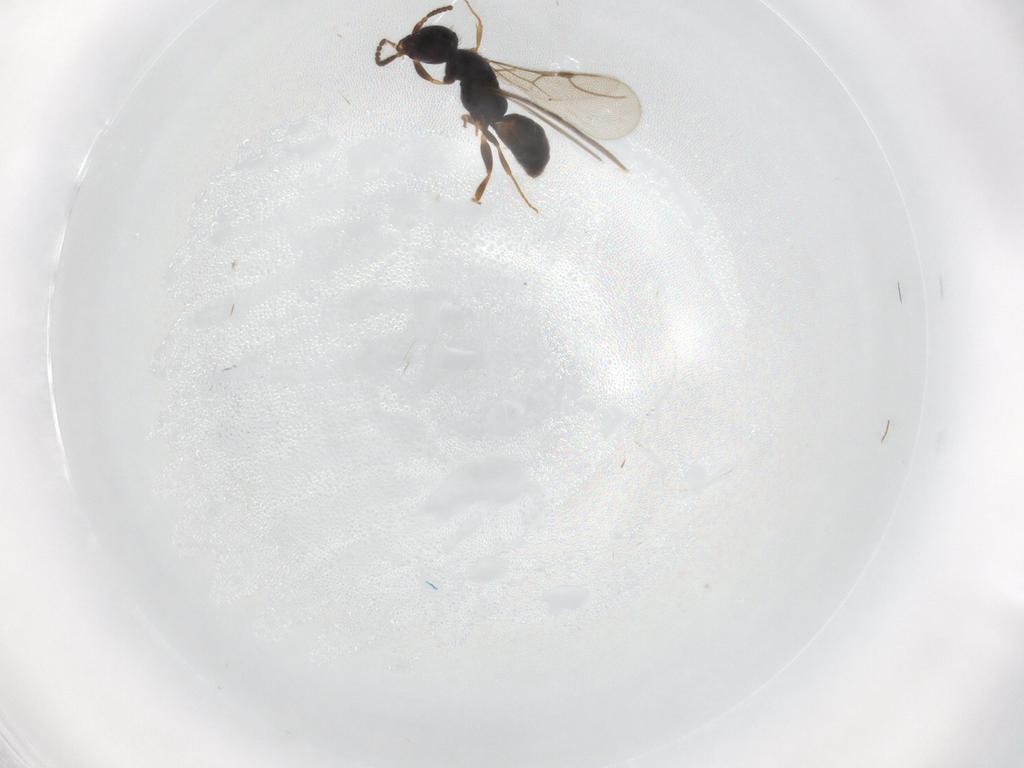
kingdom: Animalia
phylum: Arthropoda
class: Insecta
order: Hymenoptera
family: Bethylidae
